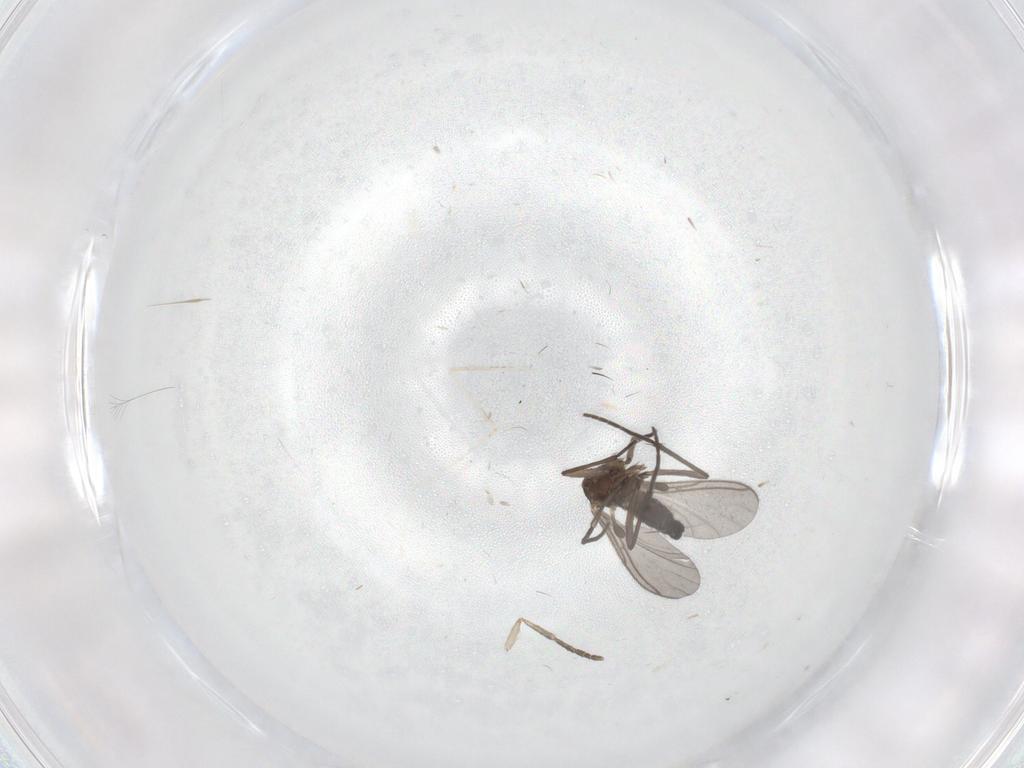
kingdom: Animalia
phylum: Arthropoda
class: Insecta
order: Diptera
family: Sciaridae
